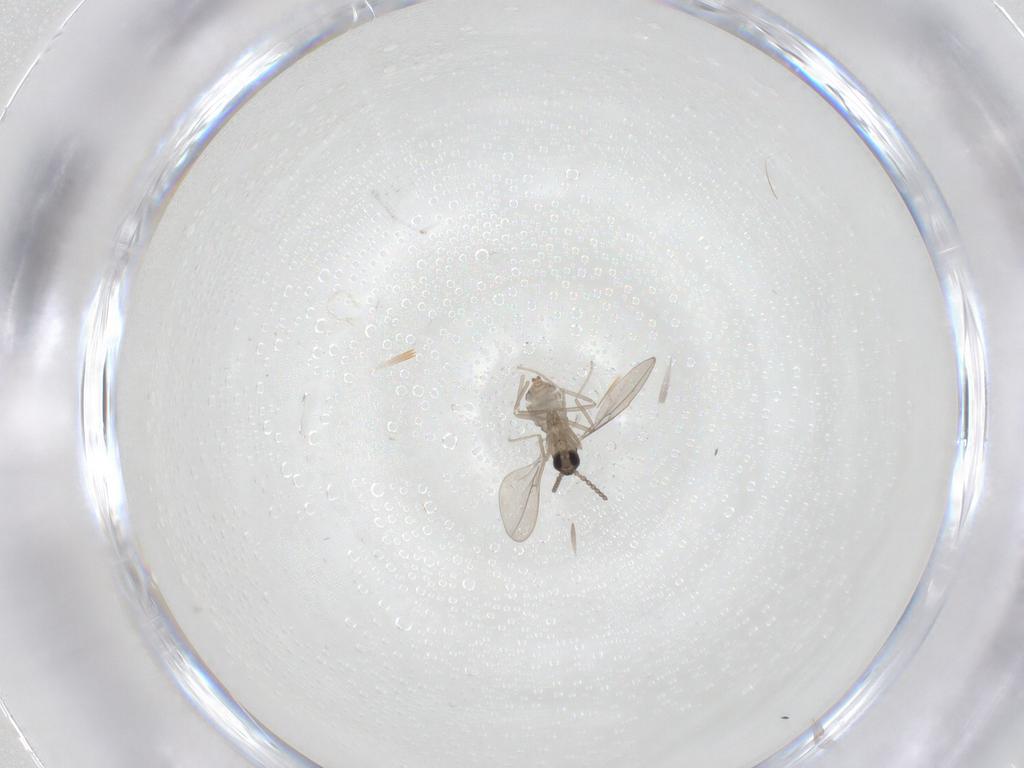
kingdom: Animalia
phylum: Arthropoda
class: Insecta
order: Diptera
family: Cecidomyiidae
